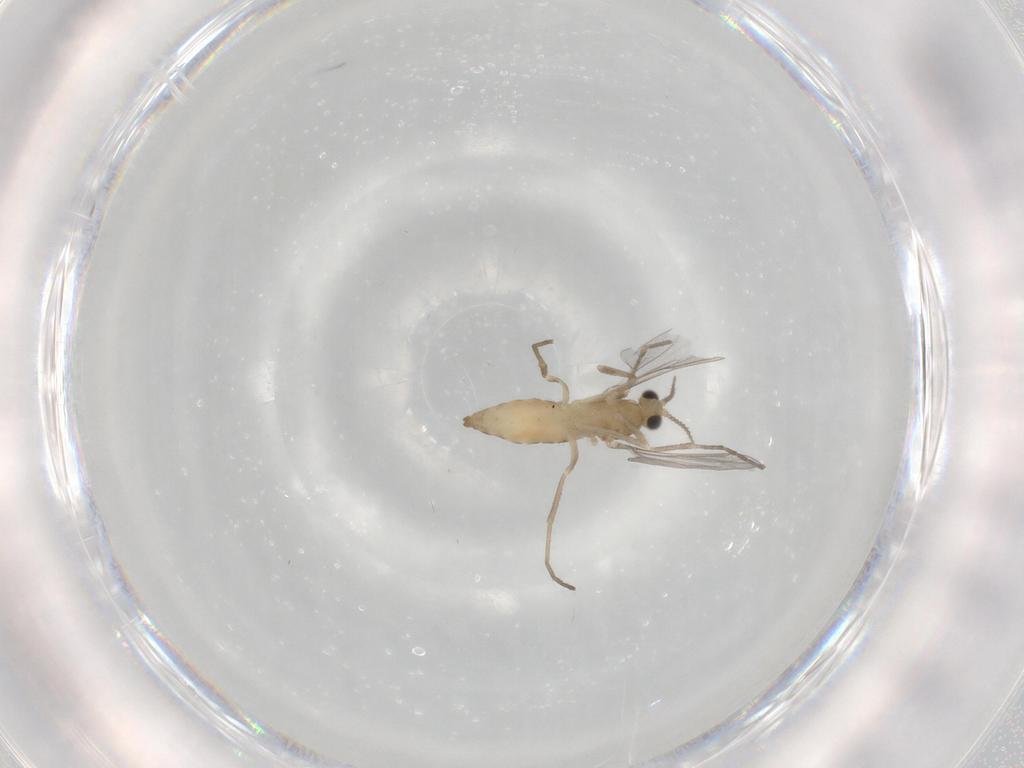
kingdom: Animalia
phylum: Arthropoda
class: Insecta
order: Diptera
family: Cecidomyiidae
